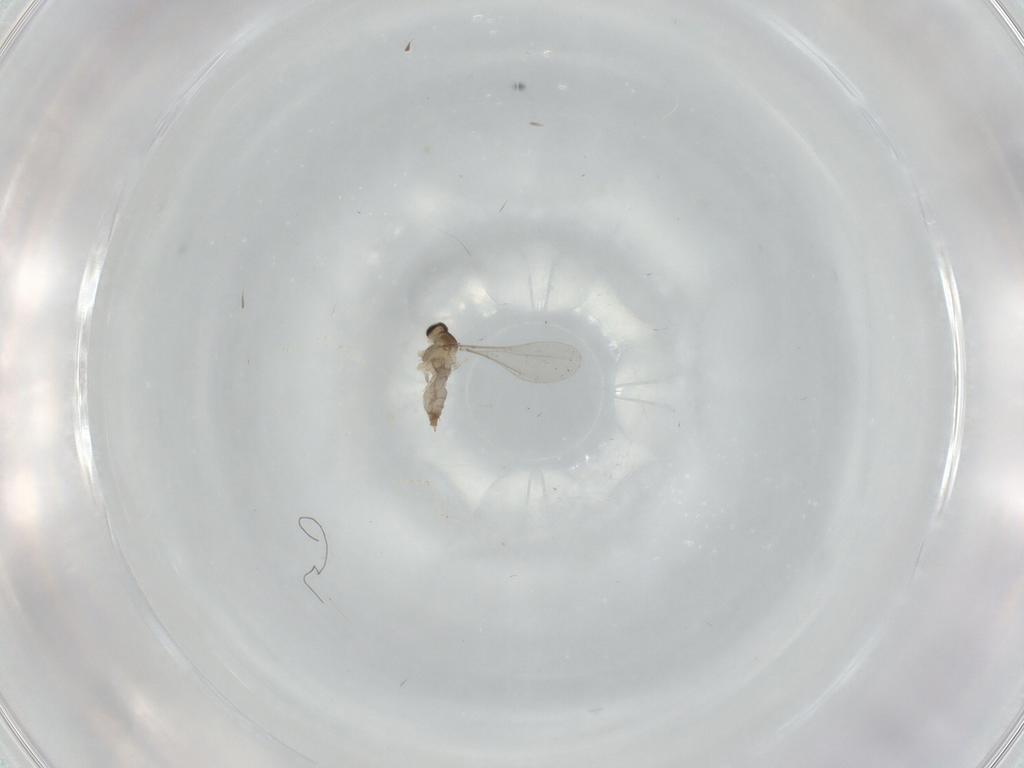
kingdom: Animalia
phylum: Arthropoda
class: Insecta
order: Diptera
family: Cecidomyiidae
